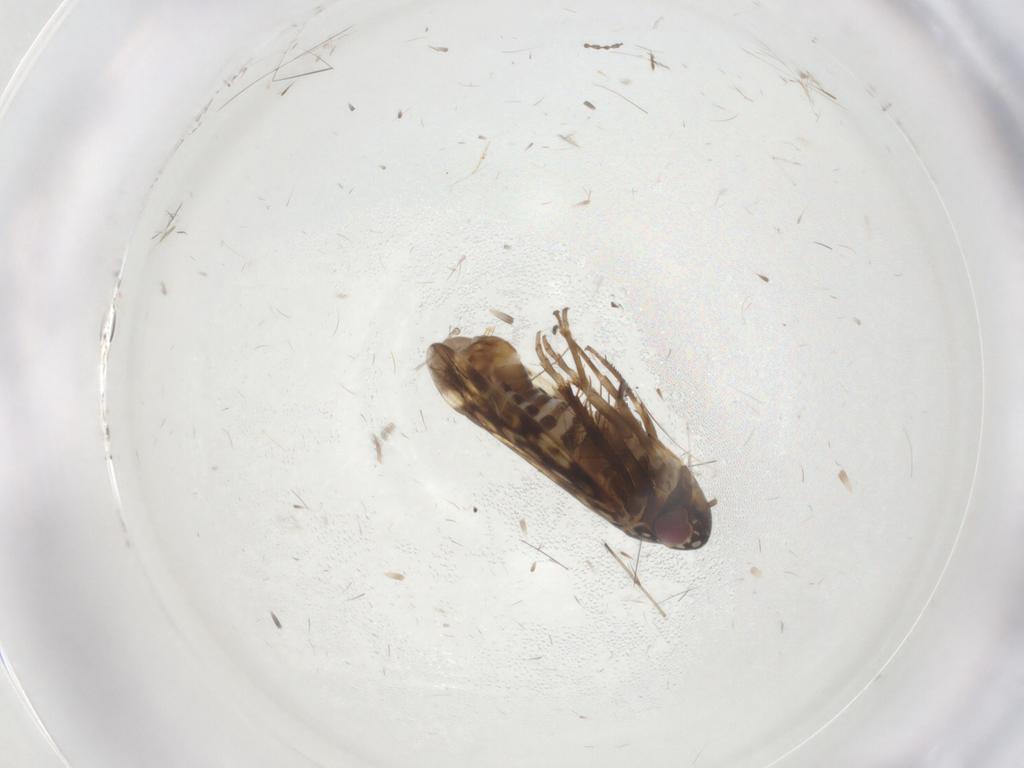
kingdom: Animalia
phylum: Arthropoda
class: Insecta
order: Hemiptera
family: Cicadellidae
